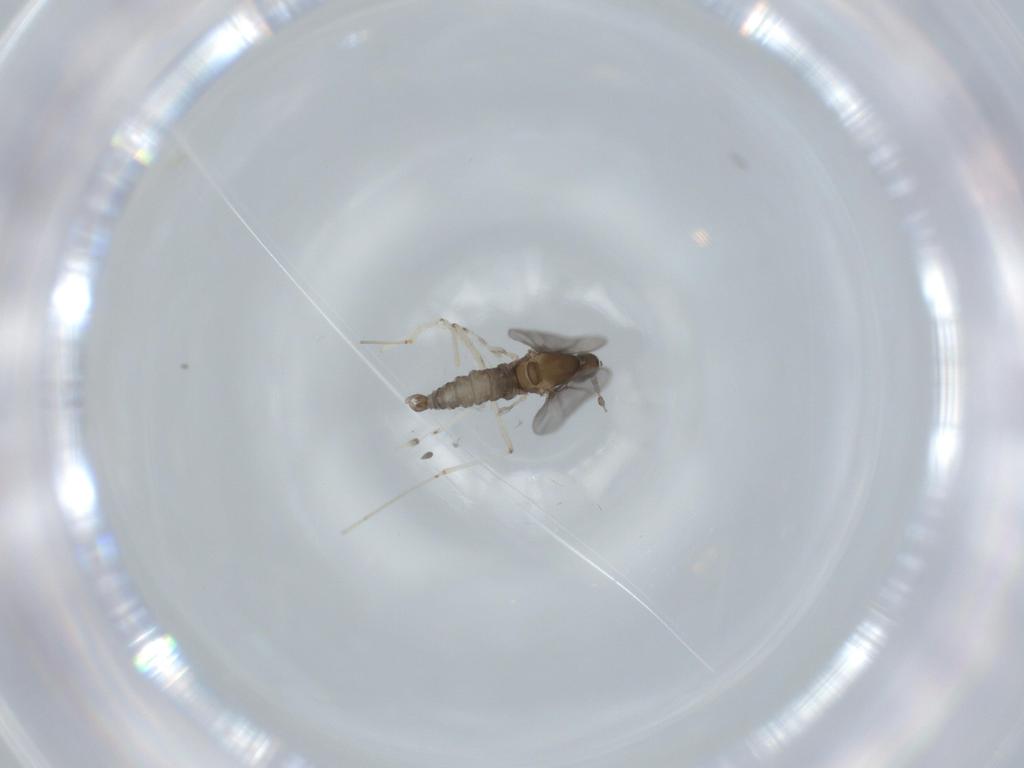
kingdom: Animalia
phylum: Arthropoda
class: Insecta
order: Diptera
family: Cecidomyiidae
